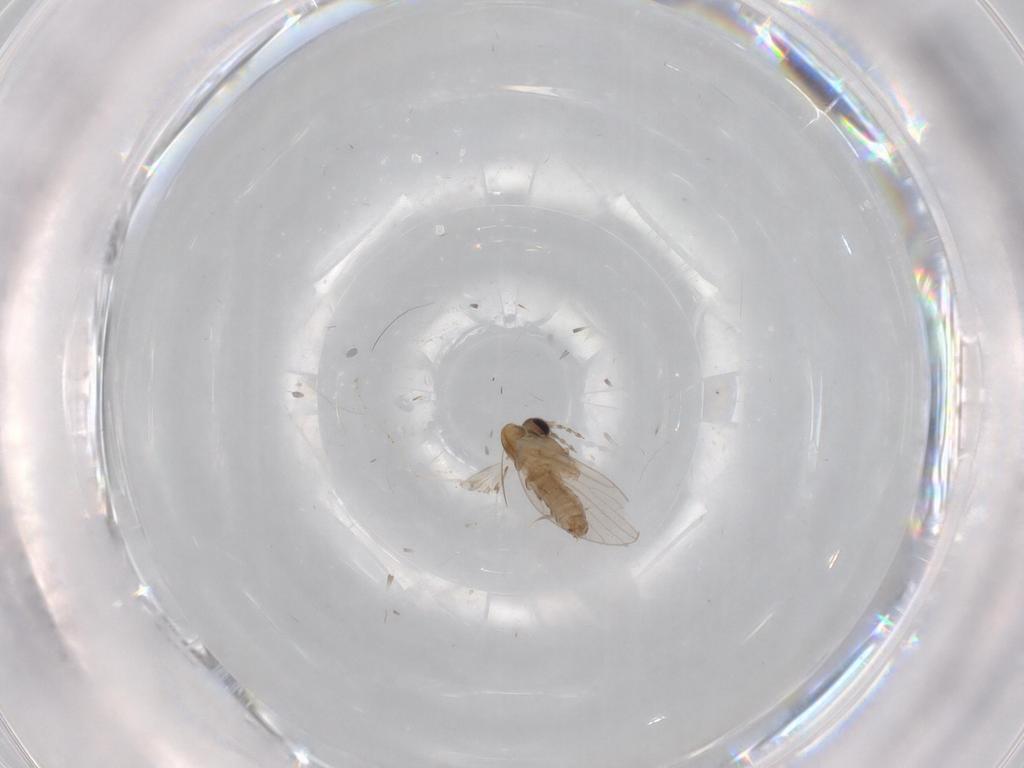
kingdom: Animalia
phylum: Arthropoda
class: Insecta
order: Diptera
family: Cecidomyiidae
